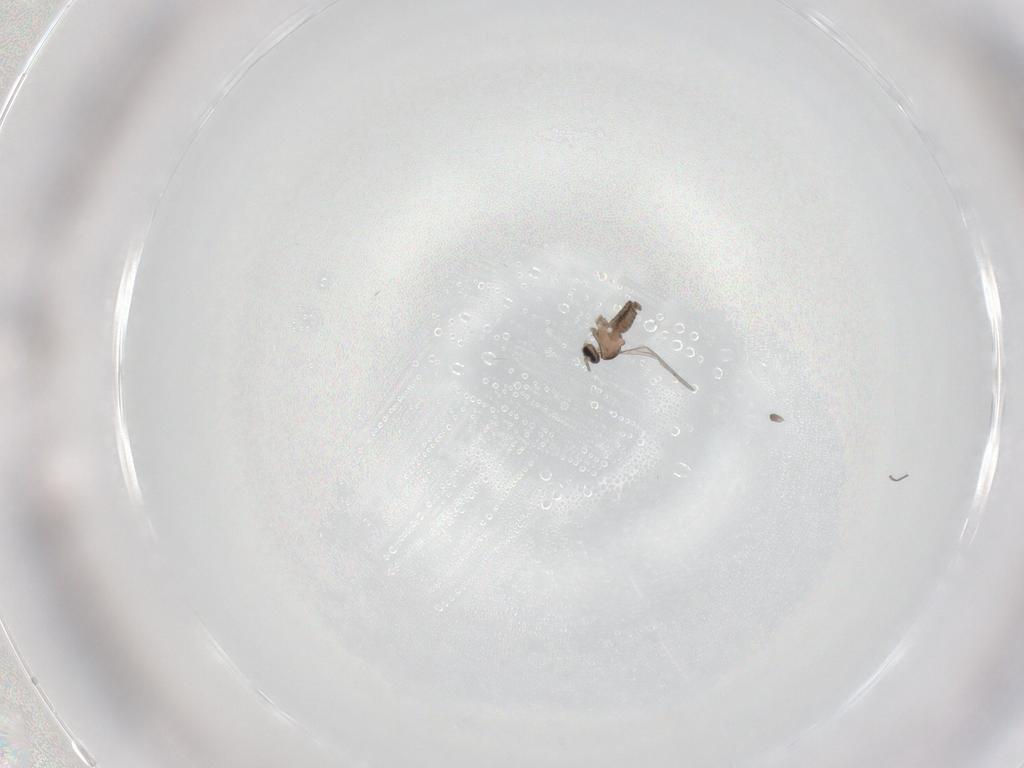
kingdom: Animalia
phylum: Arthropoda
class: Insecta
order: Diptera
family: Cecidomyiidae
